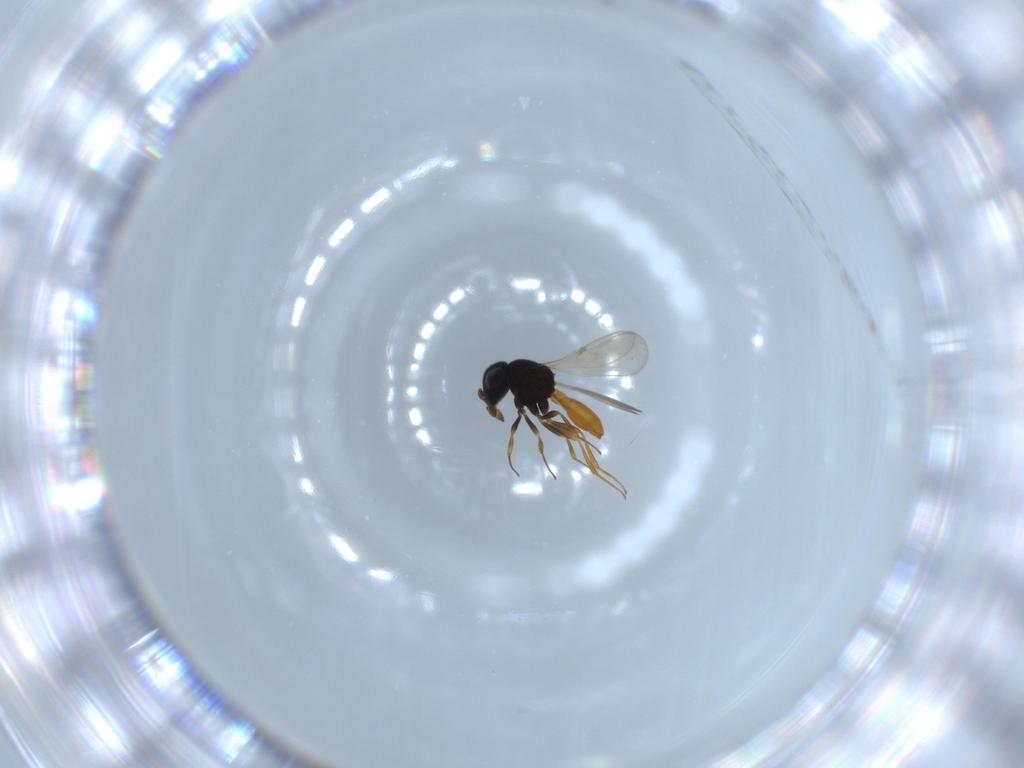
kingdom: Animalia
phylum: Arthropoda
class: Insecta
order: Hymenoptera
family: Scelionidae
